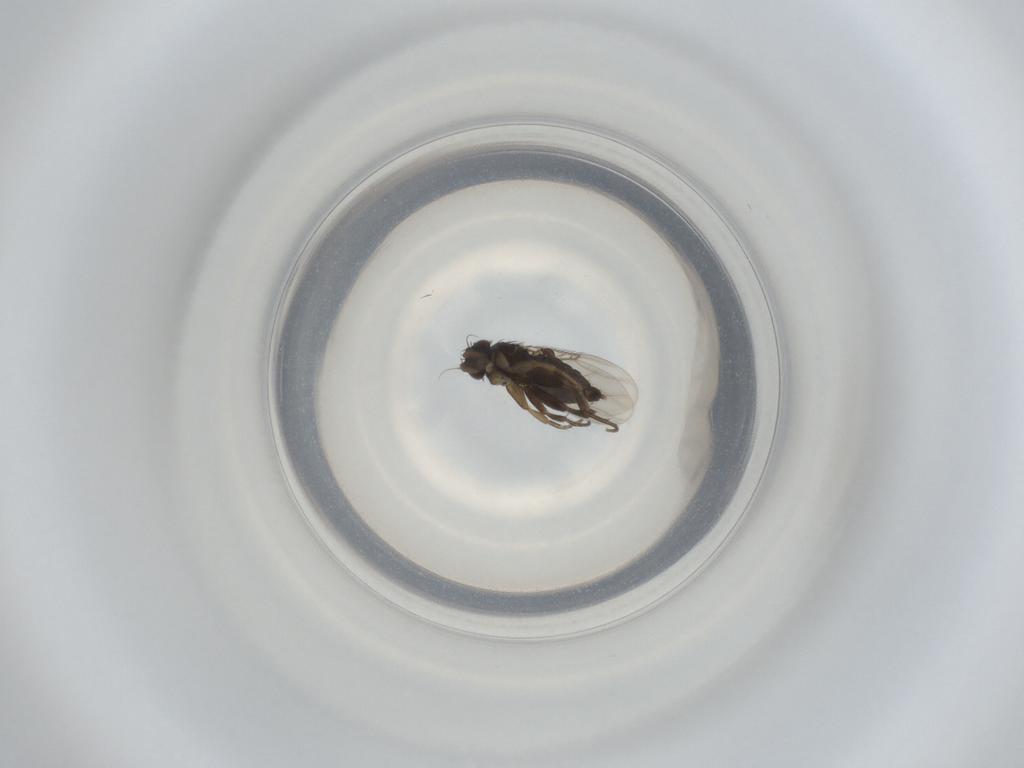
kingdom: Animalia
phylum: Arthropoda
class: Insecta
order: Diptera
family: Phoridae
